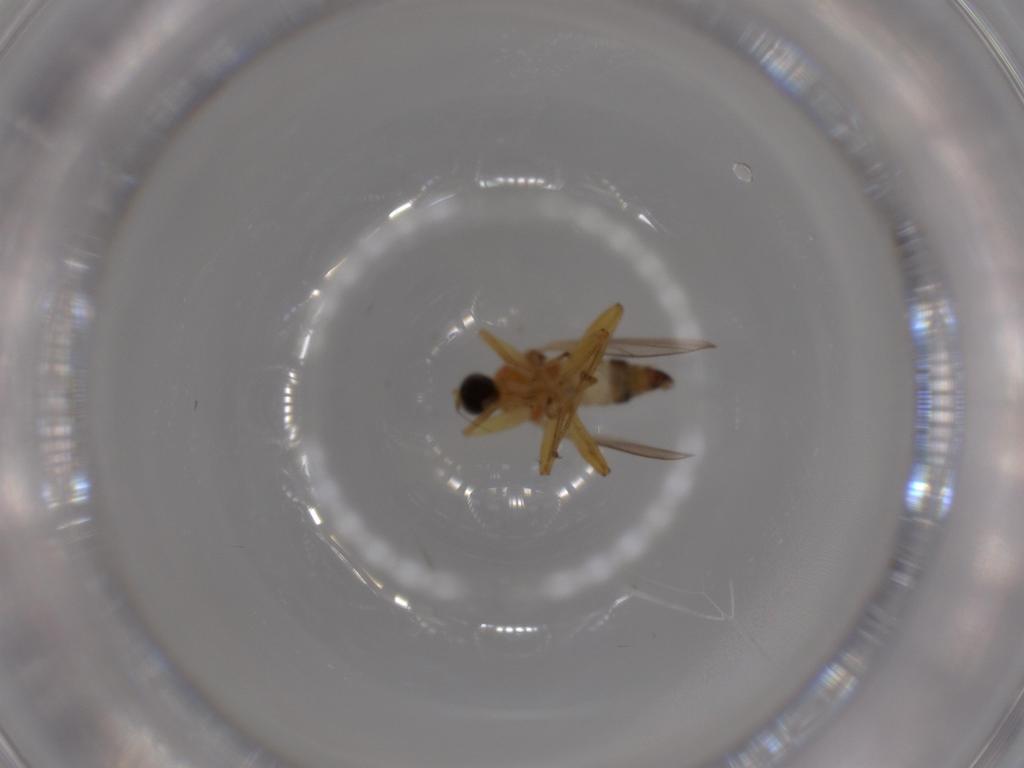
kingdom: Animalia
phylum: Arthropoda
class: Insecta
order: Diptera
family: Hybotidae
